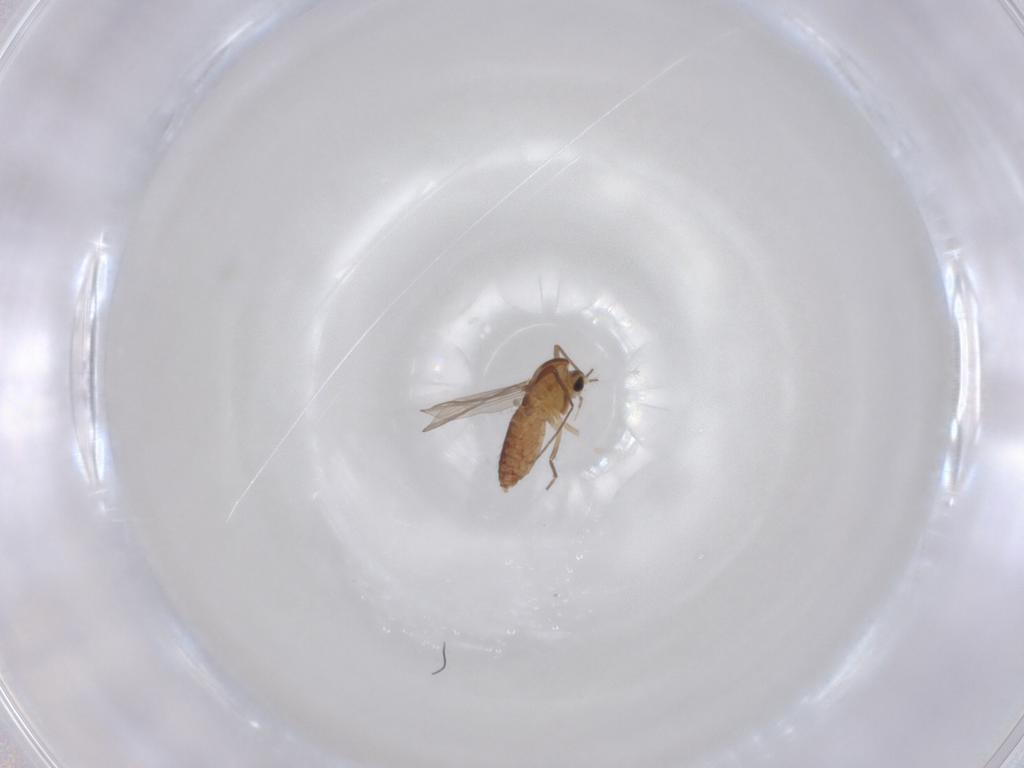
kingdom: Animalia
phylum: Arthropoda
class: Insecta
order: Diptera
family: Chironomidae
